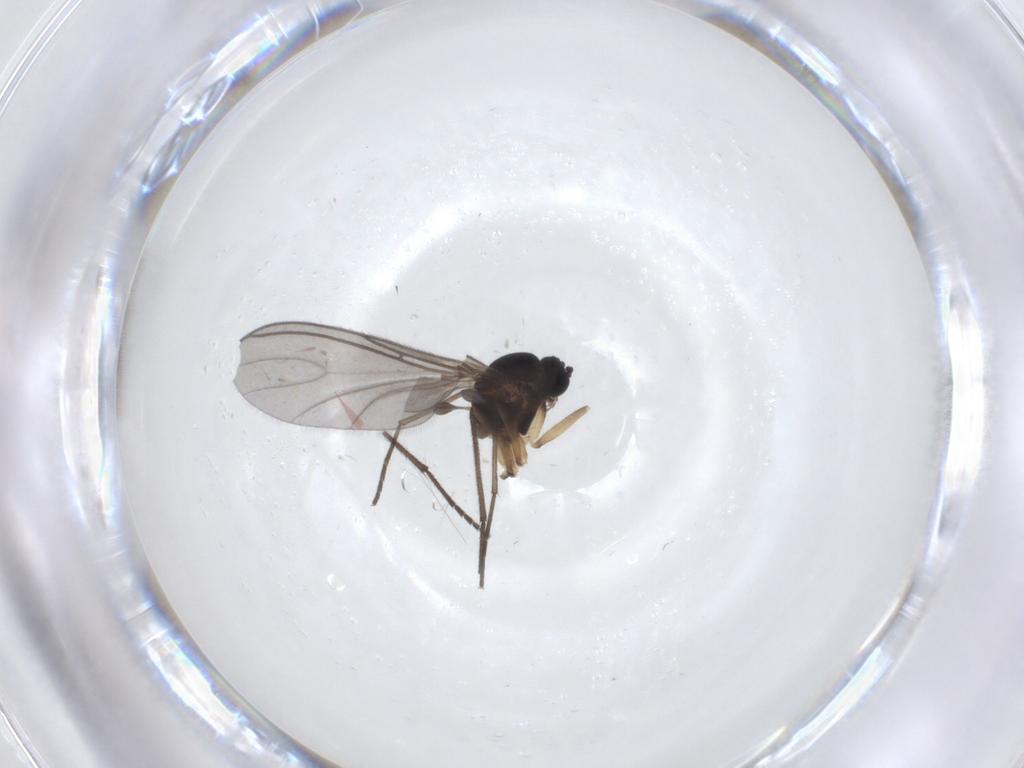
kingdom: Animalia
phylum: Arthropoda
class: Insecta
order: Diptera
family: Sciaridae
